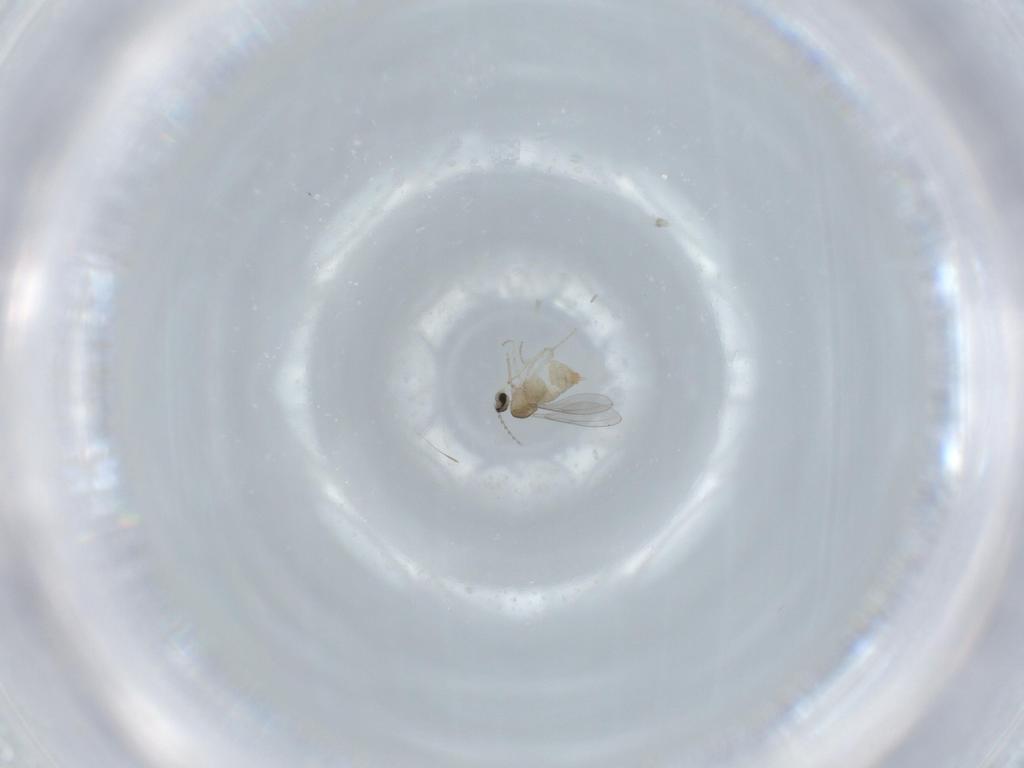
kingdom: Animalia
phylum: Arthropoda
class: Insecta
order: Diptera
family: Cecidomyiidae
